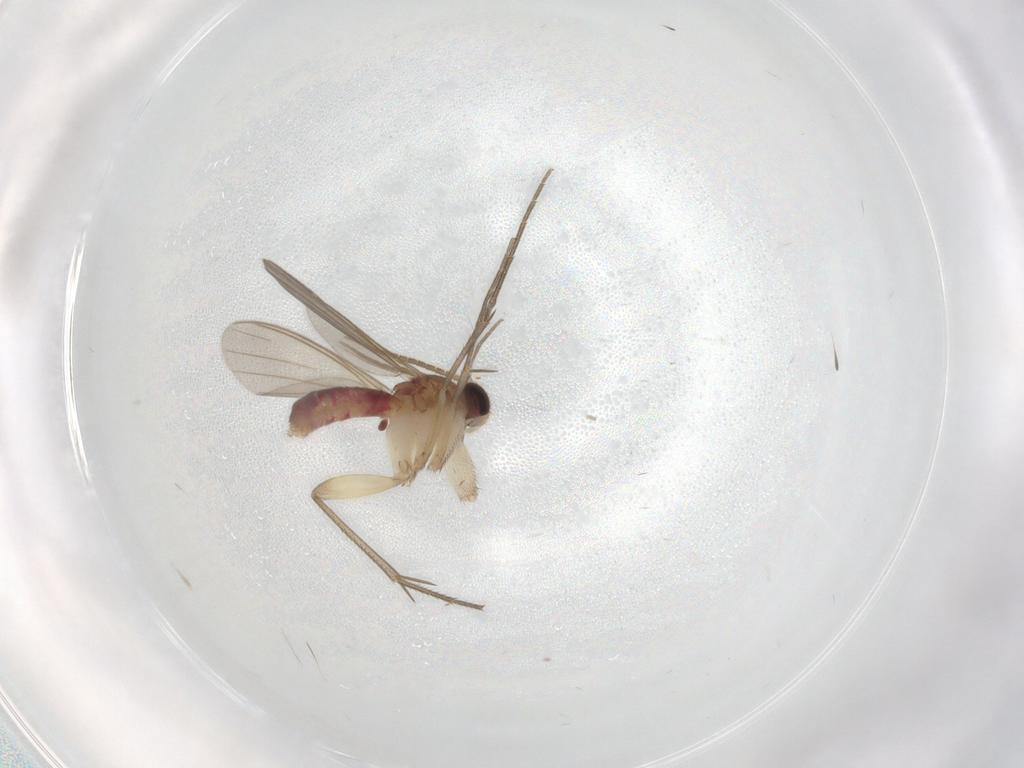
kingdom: Animalia
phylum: Arthropoda
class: Insecta
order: Diptera
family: Mycetophilidae
